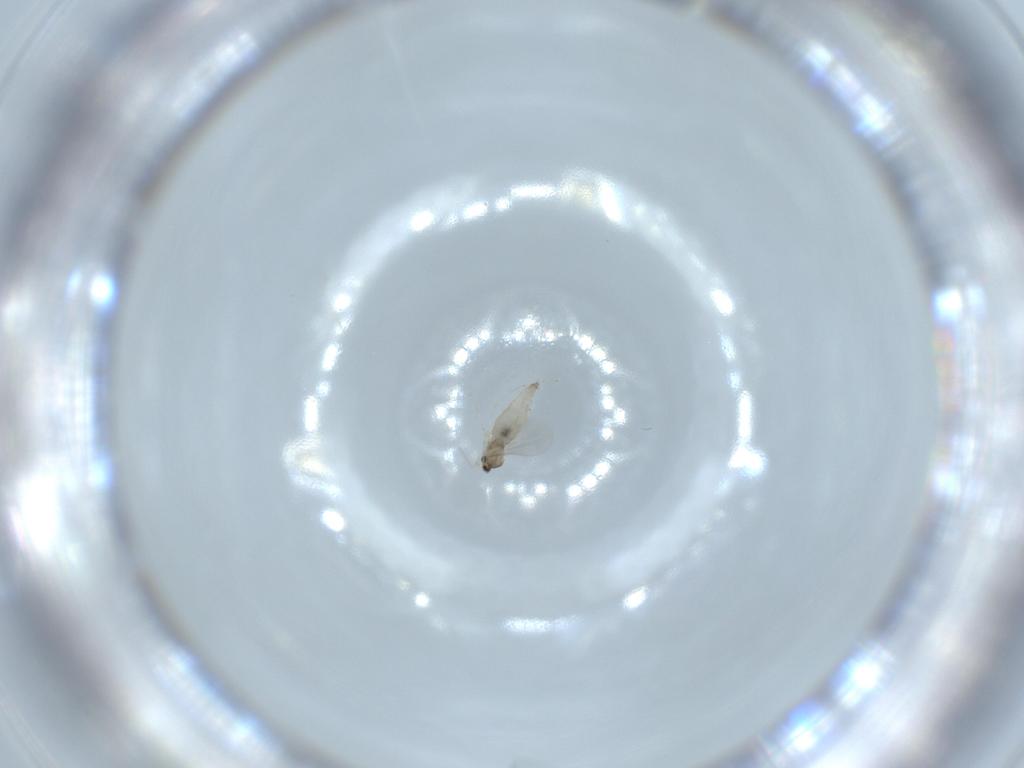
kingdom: Animalia
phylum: Arthropoda
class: Insecta
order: Diptera
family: Cecidomyiidae
